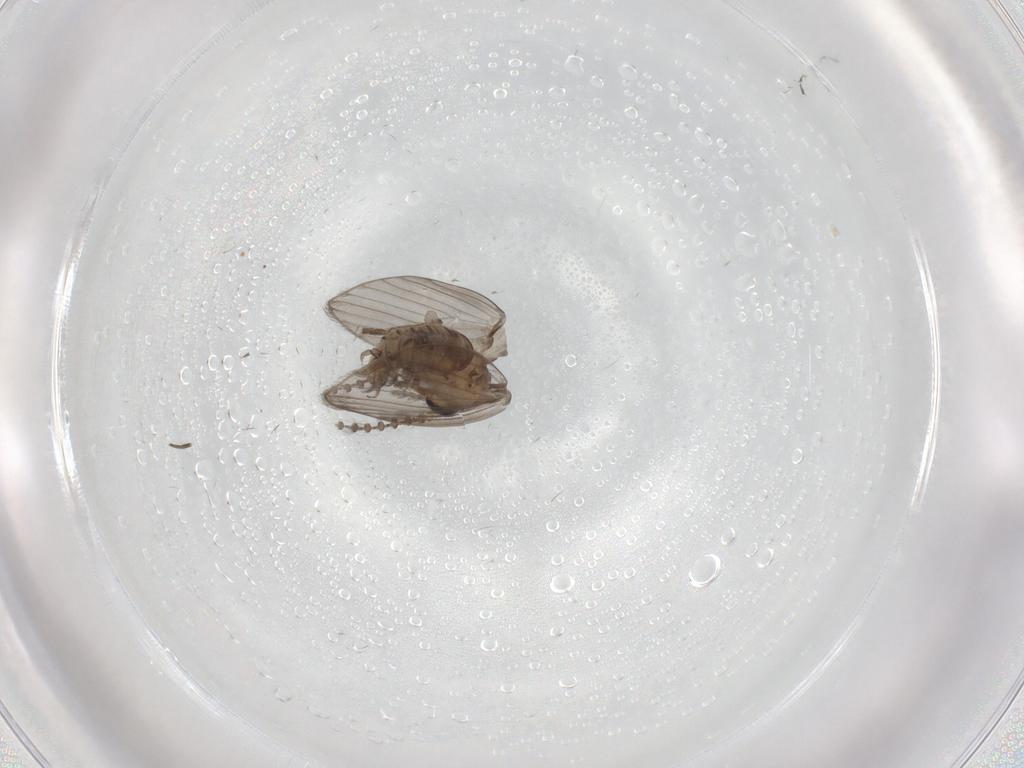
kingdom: Animalia
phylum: Arthropoda
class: Insecta
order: Diptera
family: Psychodidae
